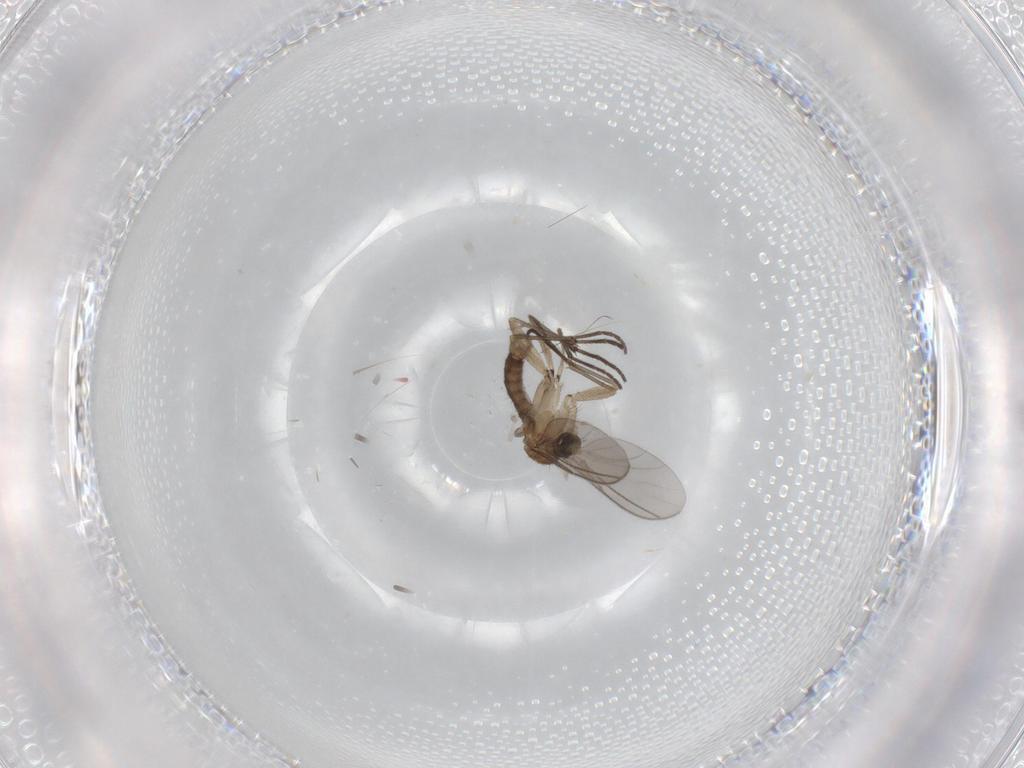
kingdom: Animalia
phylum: Arthropoda
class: Insecta
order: Diptera
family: Sciaridae
